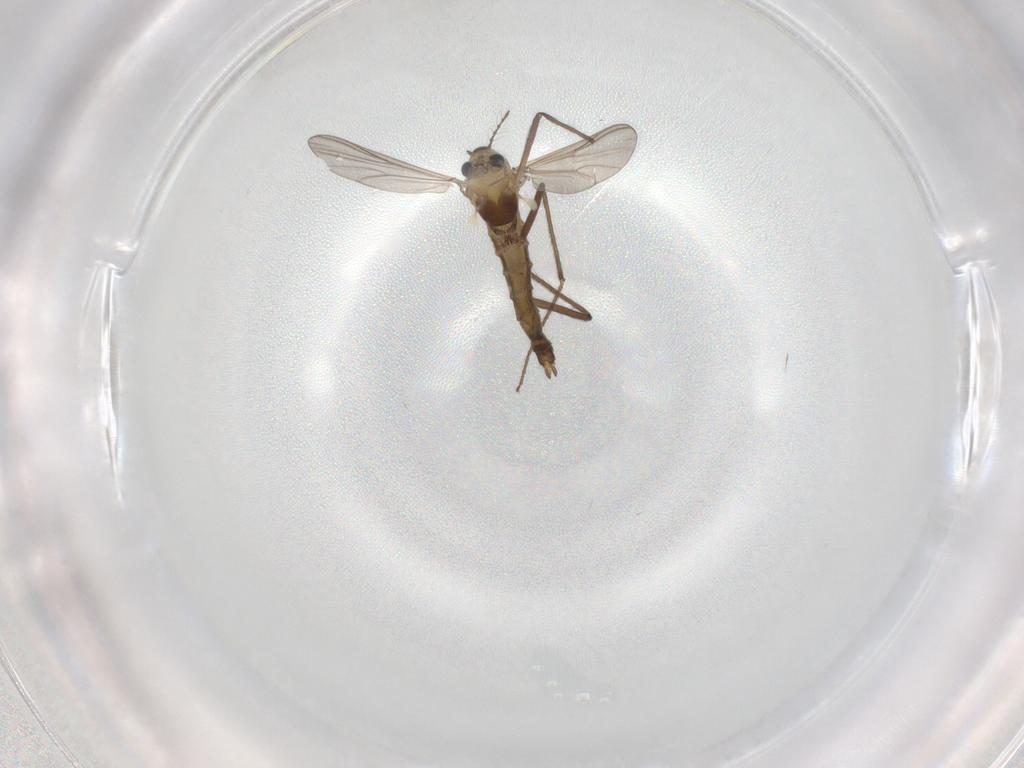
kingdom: Animalia
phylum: Arthropoda
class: Insecta
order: Diptera
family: Chironomidae
